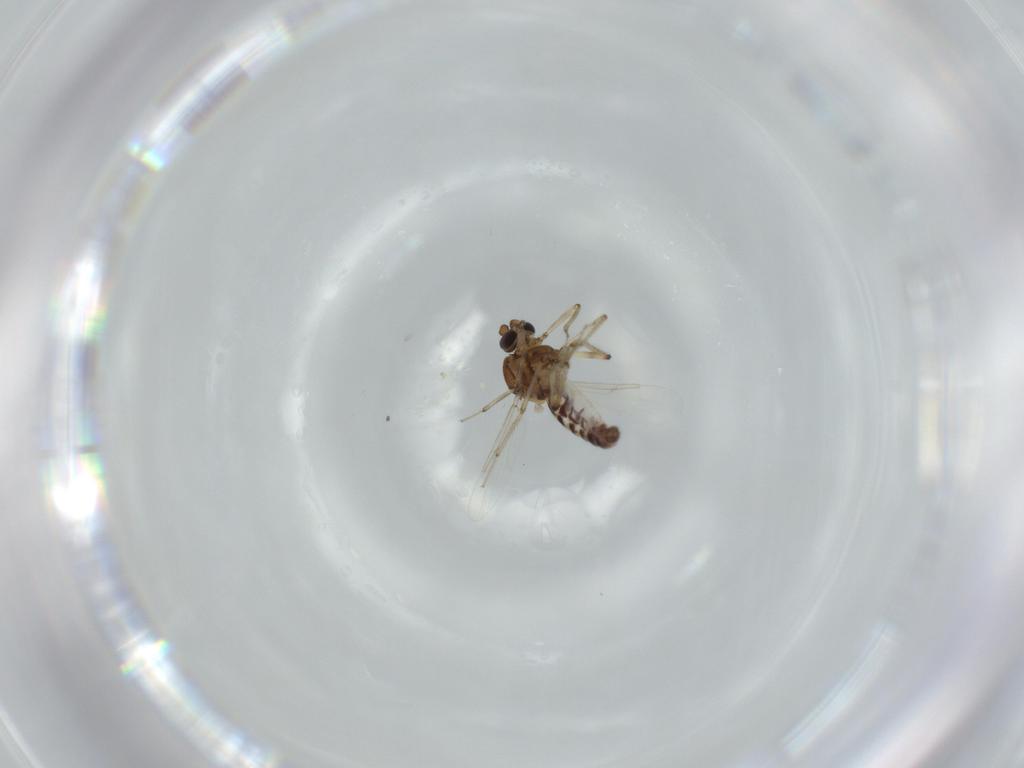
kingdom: Animalia
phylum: Arthropoda
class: Insecta
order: Diptera
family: Ceratopogonidae
